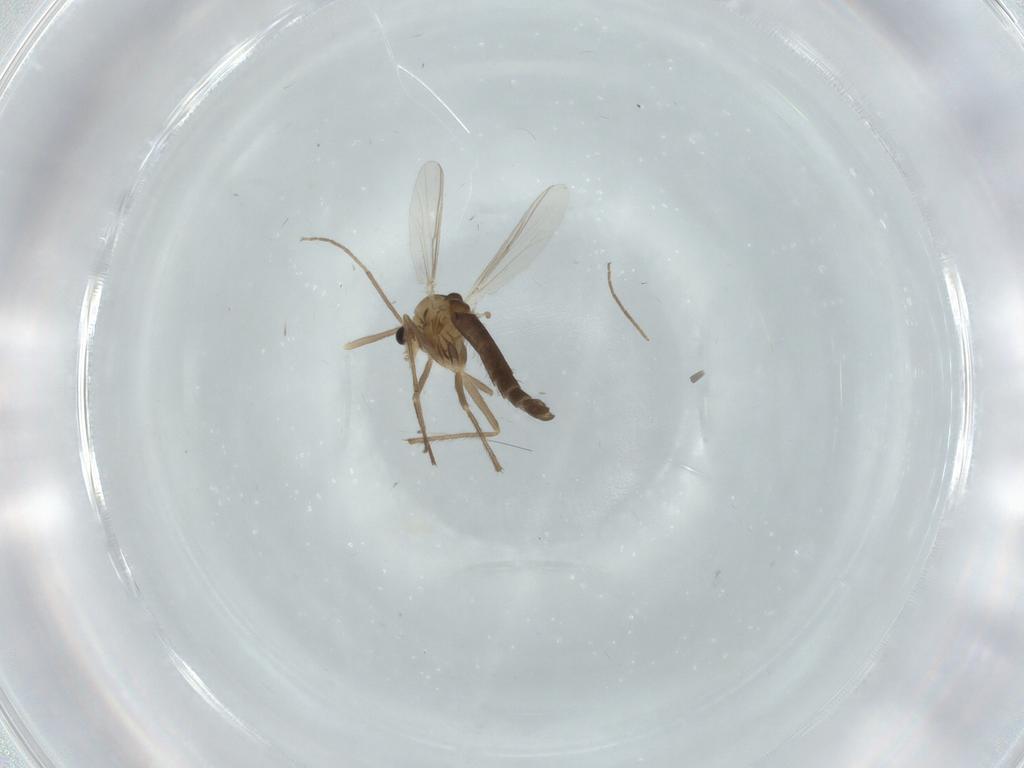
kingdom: Animalia
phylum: Arthropoda
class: Insecta
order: Diptera
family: Chironomidae
